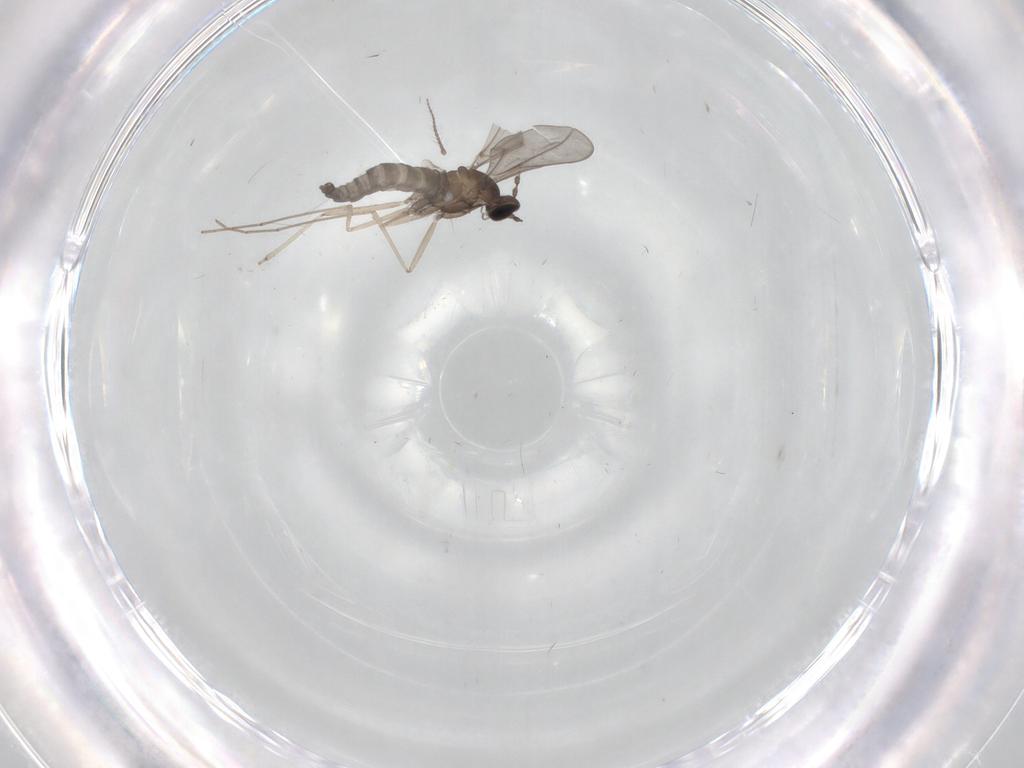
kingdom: Animalia
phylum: Arthropoda
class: Insecta
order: Diptera
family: Cecidomyiidae
